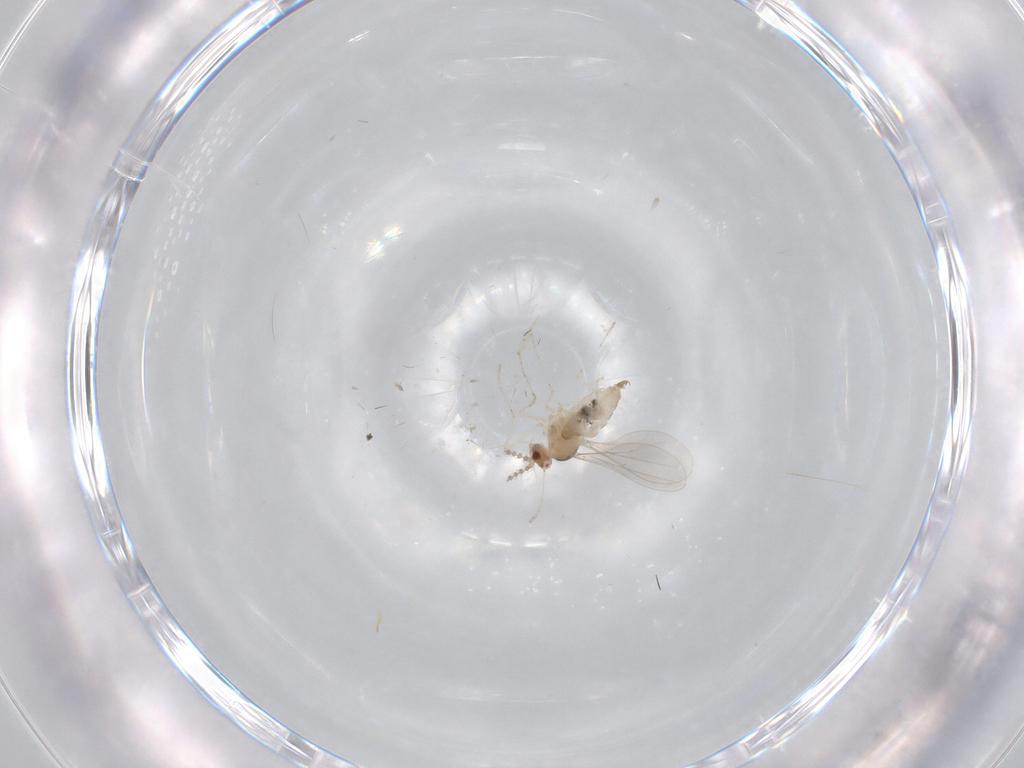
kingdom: Animalia
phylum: Arthropoda
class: Insecta
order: Diptera
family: Cecidomyiidae
